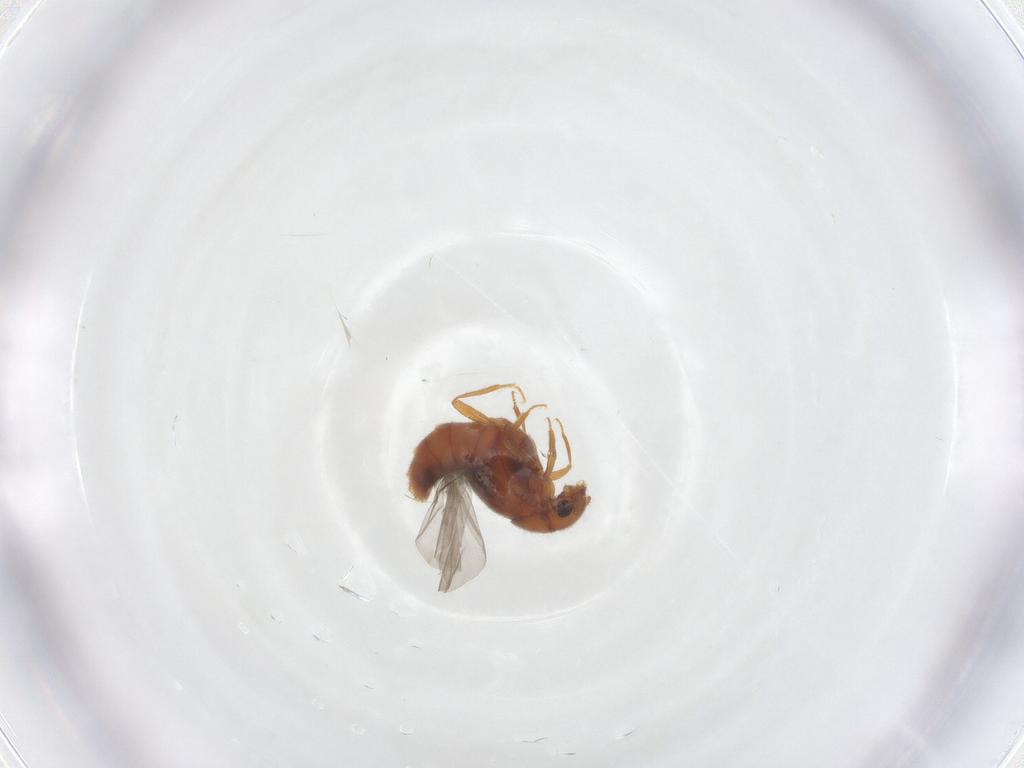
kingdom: Animalia
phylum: Arthropoda
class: Insecta
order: Coleoptera
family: Staphylinidae
